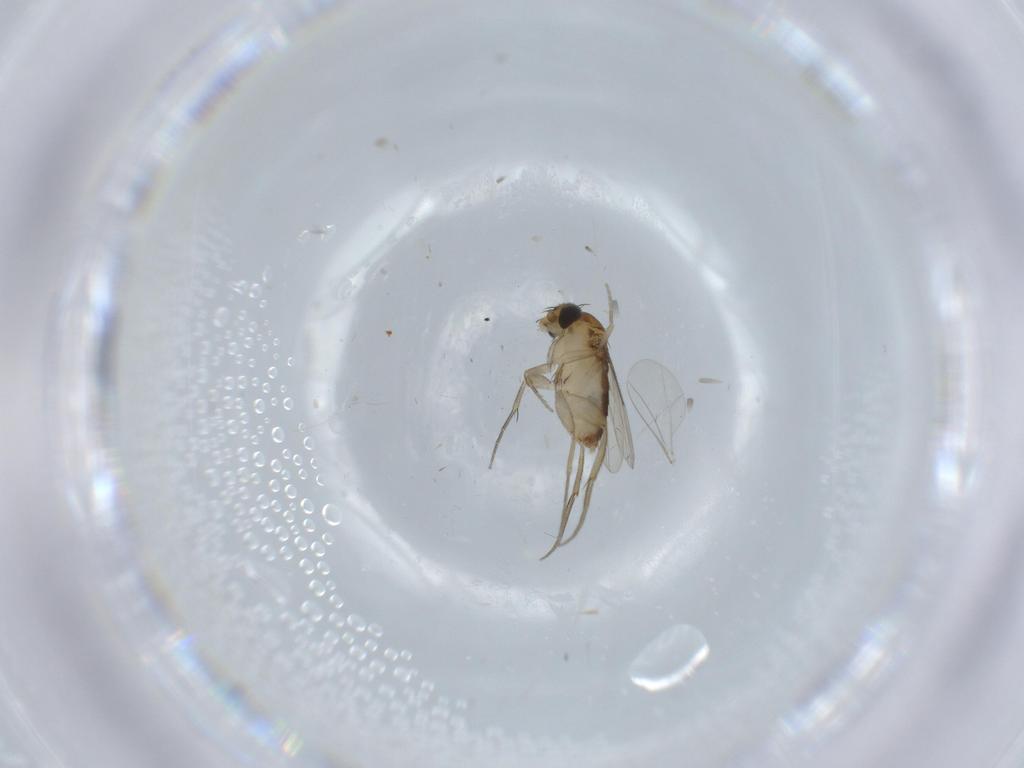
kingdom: Animalia
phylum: Arthropoda
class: Insecta
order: Diptera
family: Phoridae
